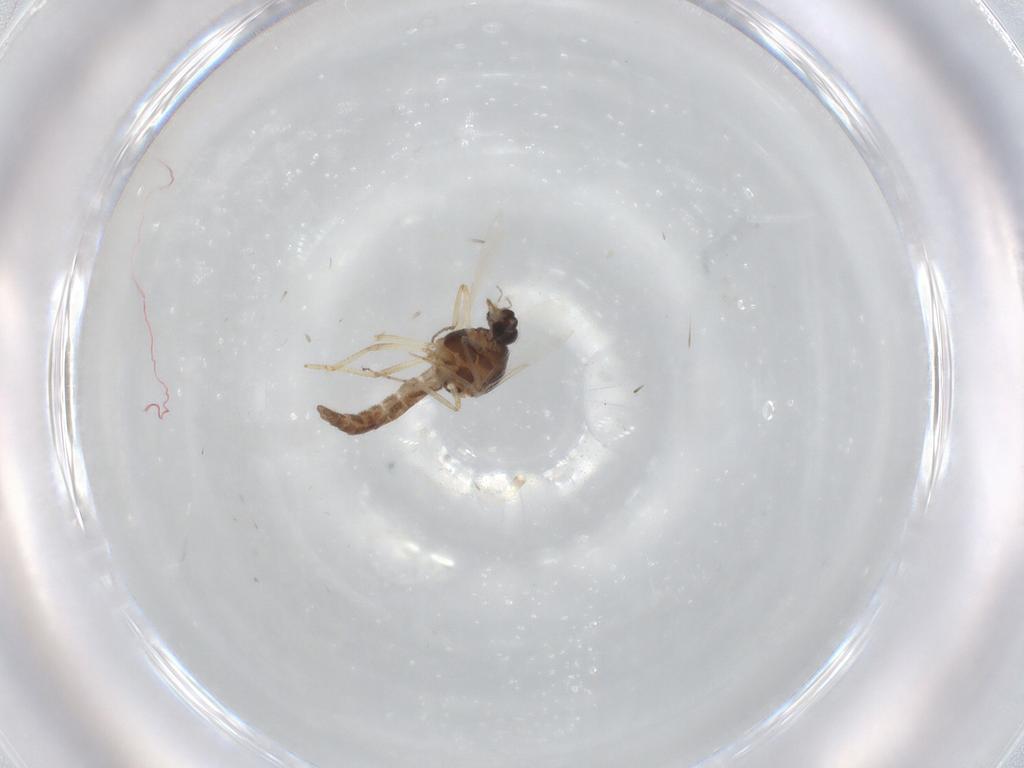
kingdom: Animalia
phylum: Arthropoda
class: Insecta
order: Diptera
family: Ceratopogonidae
